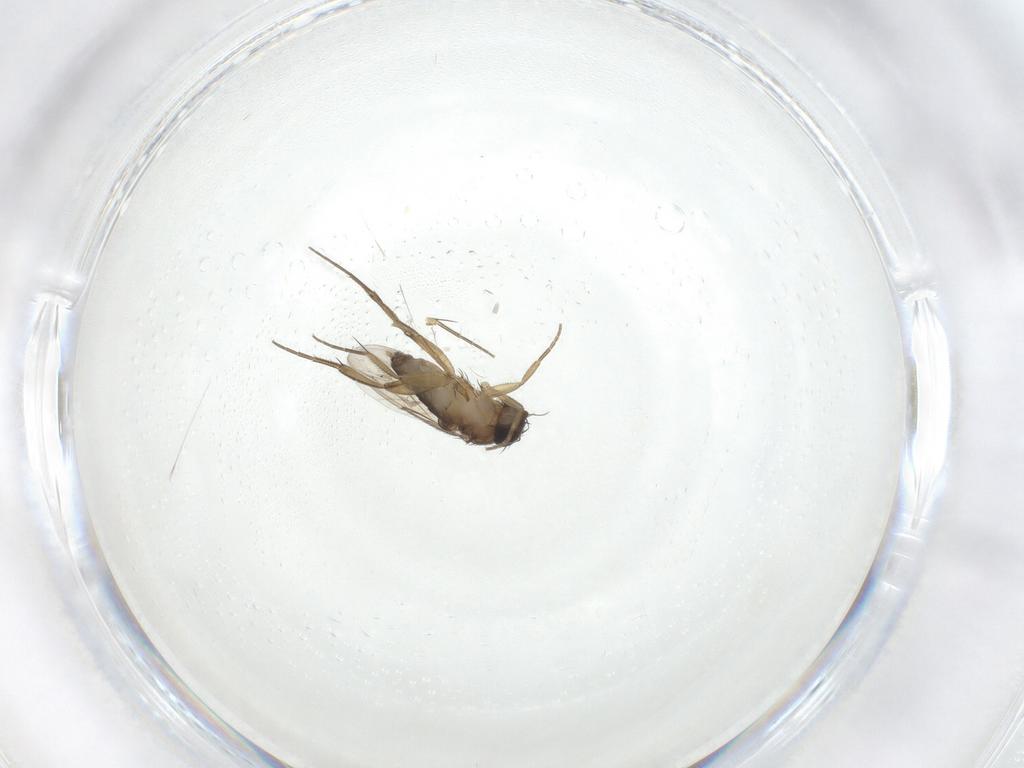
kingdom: Animalia
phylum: Arthropoda
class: Insecta
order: Diptera
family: Phoridae
